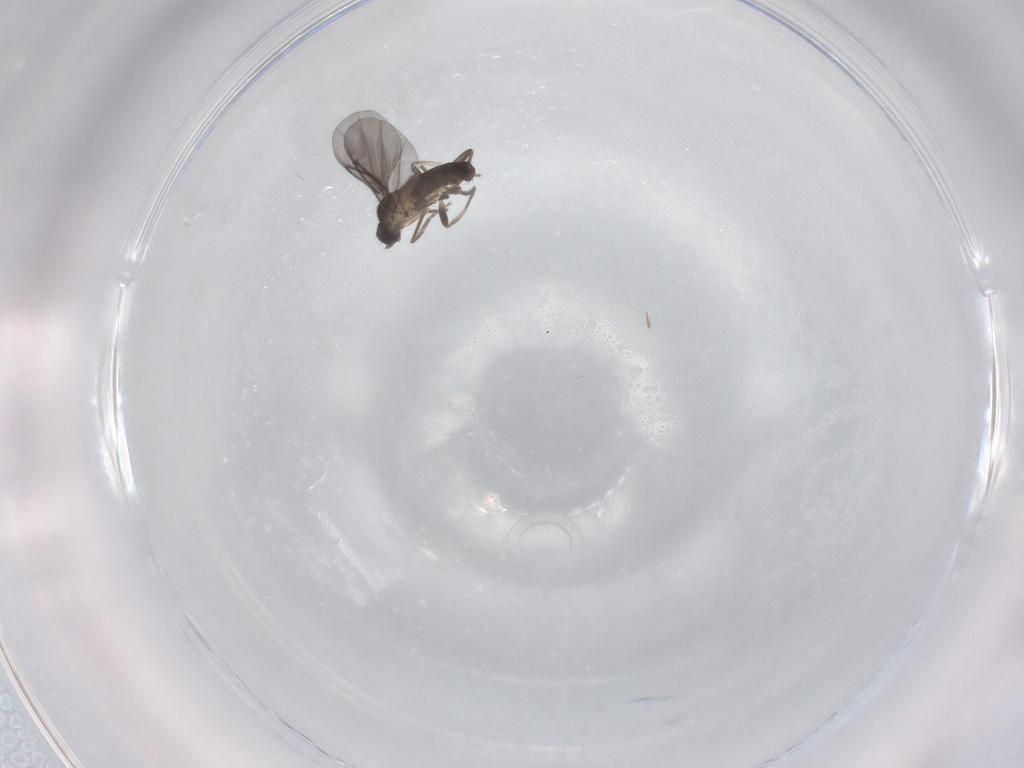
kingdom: Animalia
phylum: Arthropoda
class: Insecta
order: Diptera
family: Phoridae
